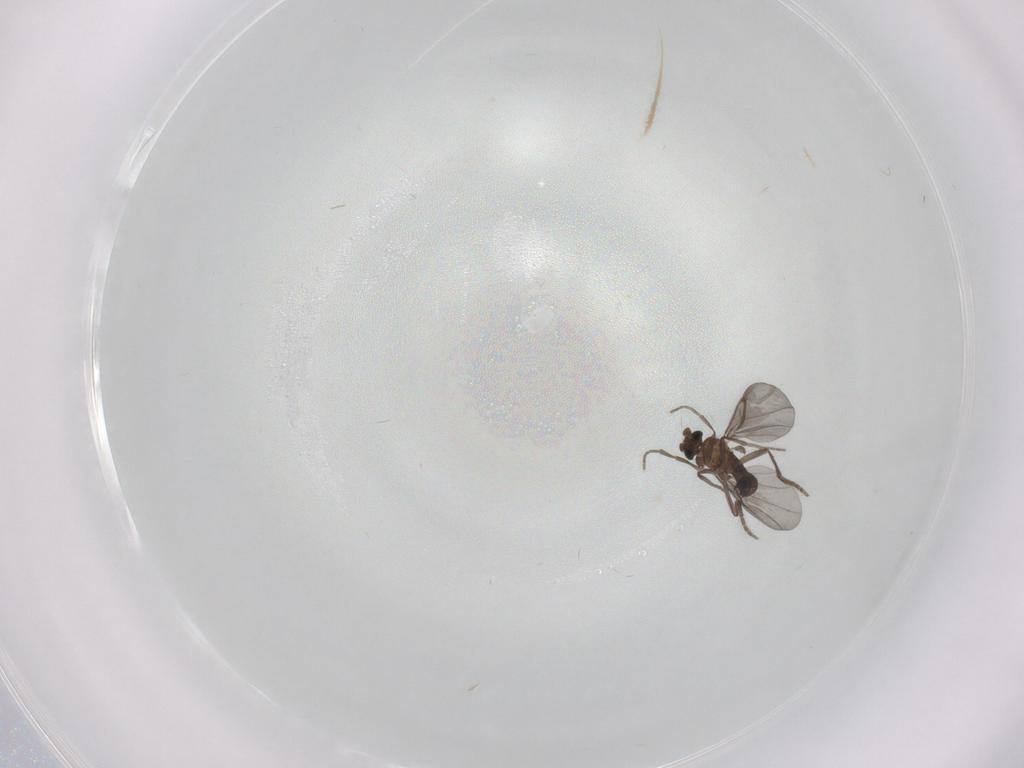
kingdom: Animalia
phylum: Arthropoda
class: Insecta
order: Diptera
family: Phoridae
